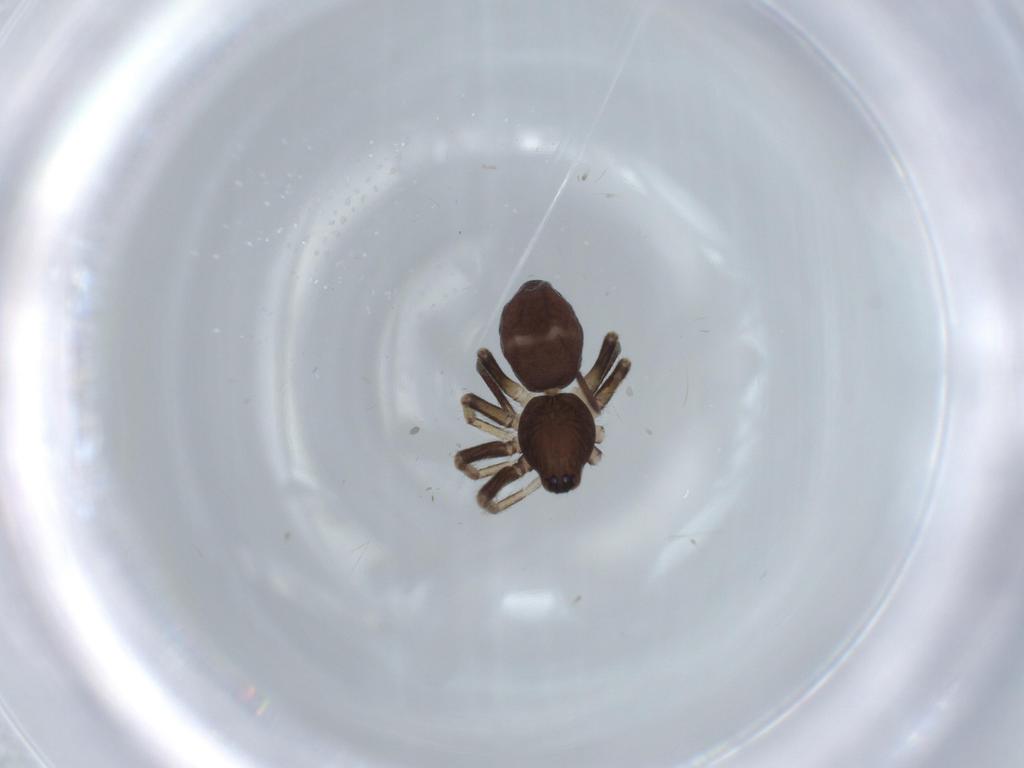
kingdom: Animalia
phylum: Arthropoda
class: Arachnida
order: Araneae
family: Corinnidae
